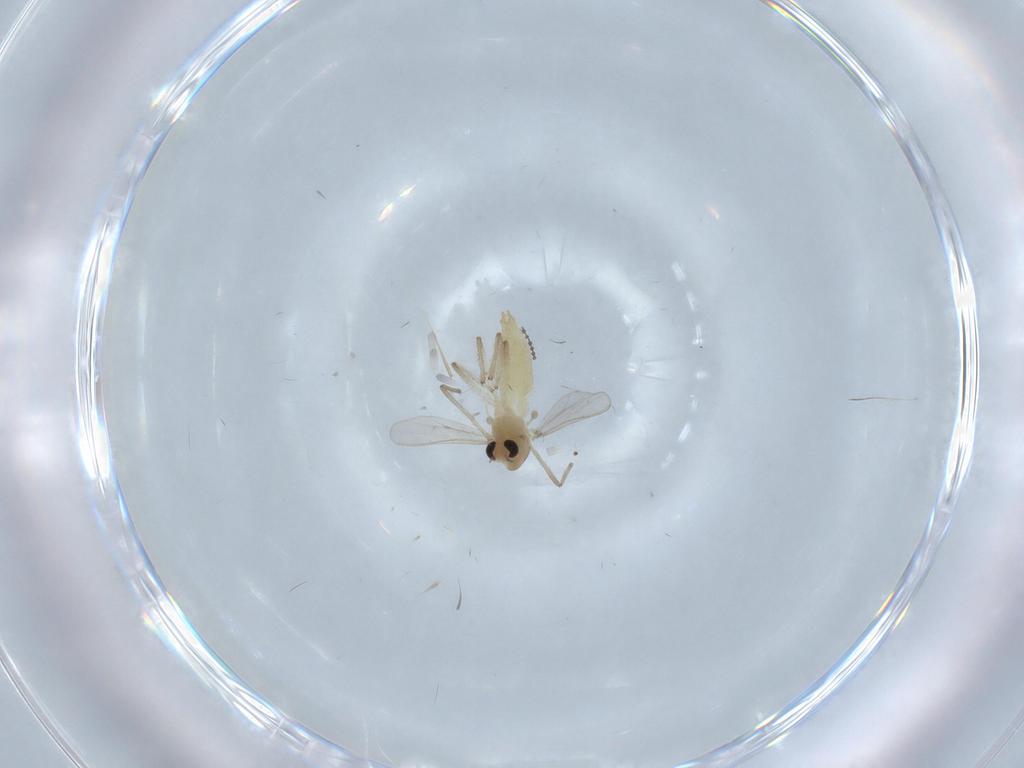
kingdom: Animalia
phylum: Arthropoda
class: Insecta
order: Diptera
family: Chironomidae
